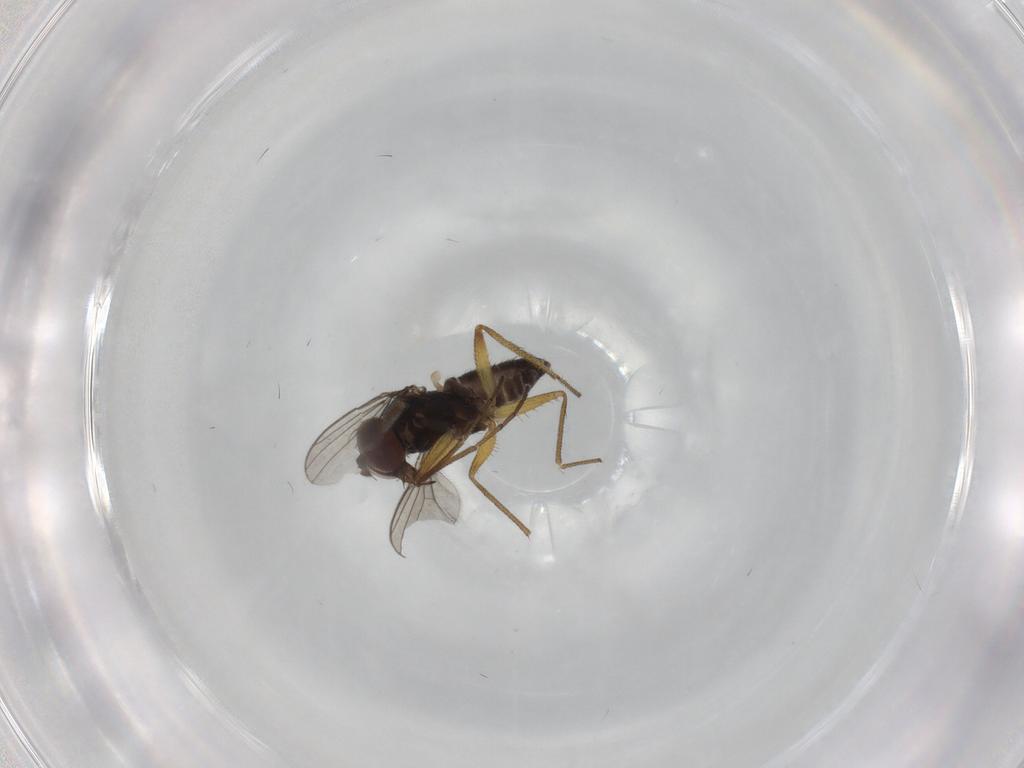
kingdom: Animalia
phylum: Arthropoda
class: Insecta
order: Diptera
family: Dolichopodidae
